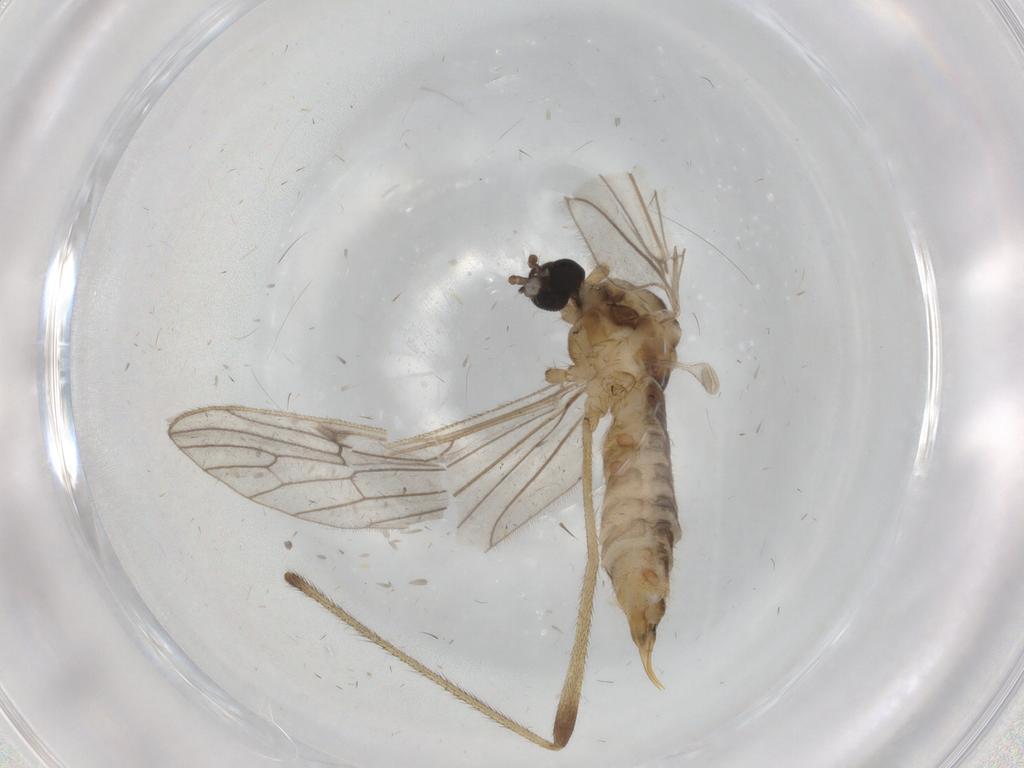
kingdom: Animalia
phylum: Arthropoda
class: Insecta
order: Diptera
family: Limoniidae
